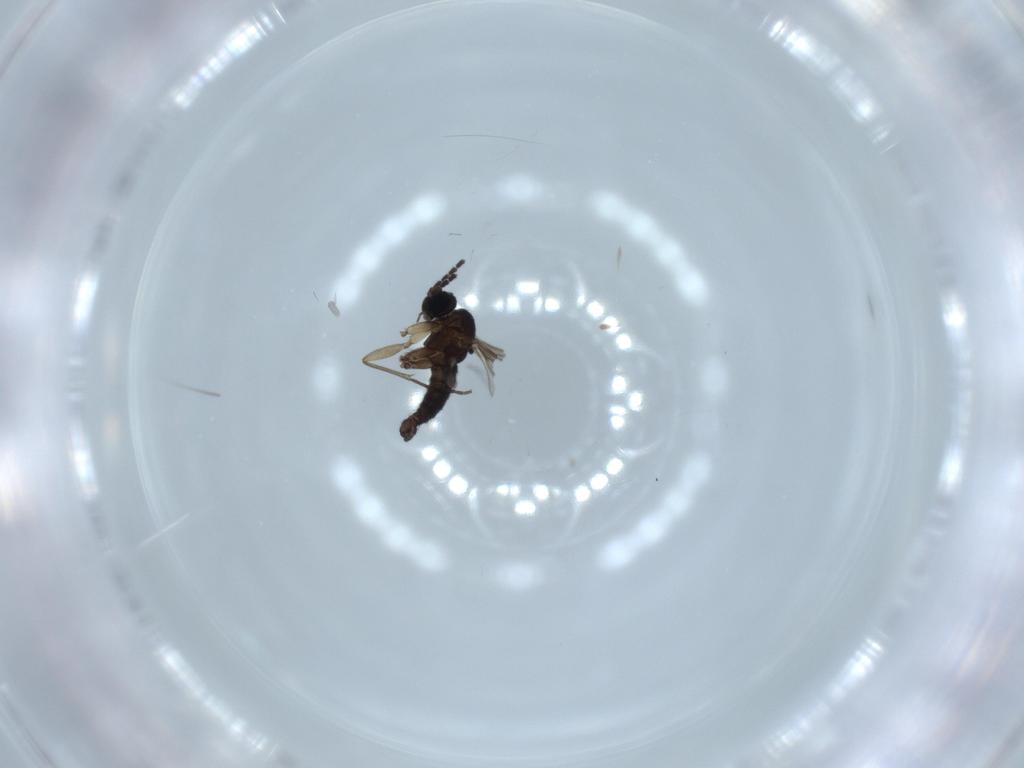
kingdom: Animalia
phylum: Arthropoda
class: Insecta
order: Diptera
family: Sciaridae
